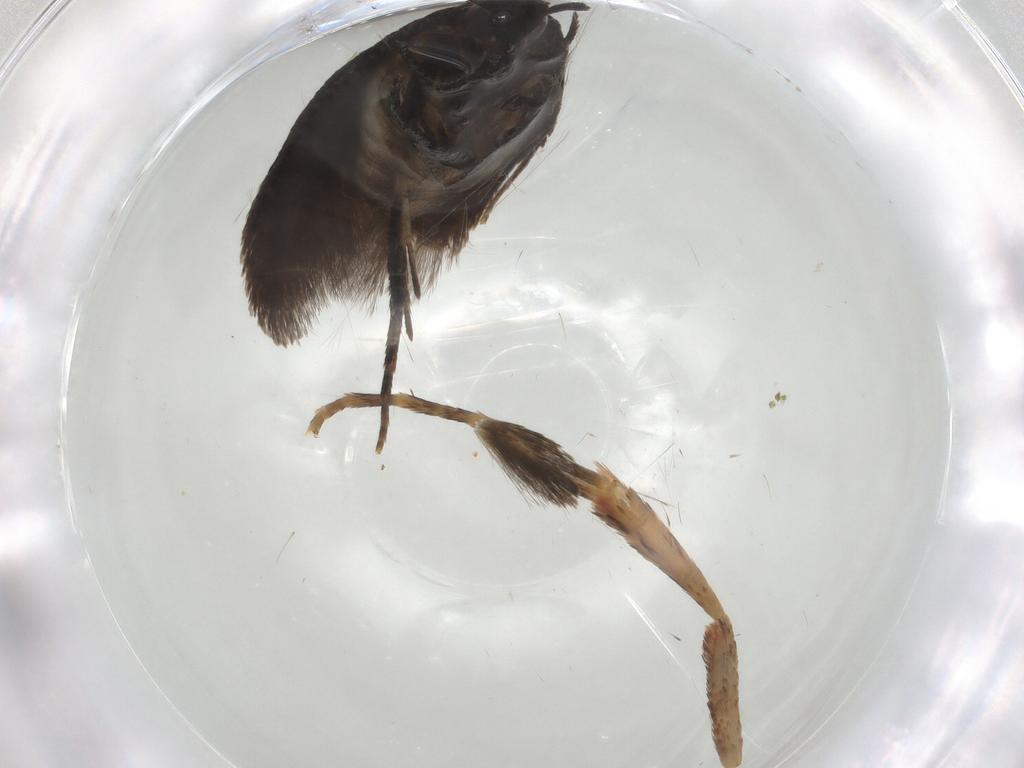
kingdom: Animalia
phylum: Arthropoda
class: Insecta
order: Lepidoptera
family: Pyralidae
